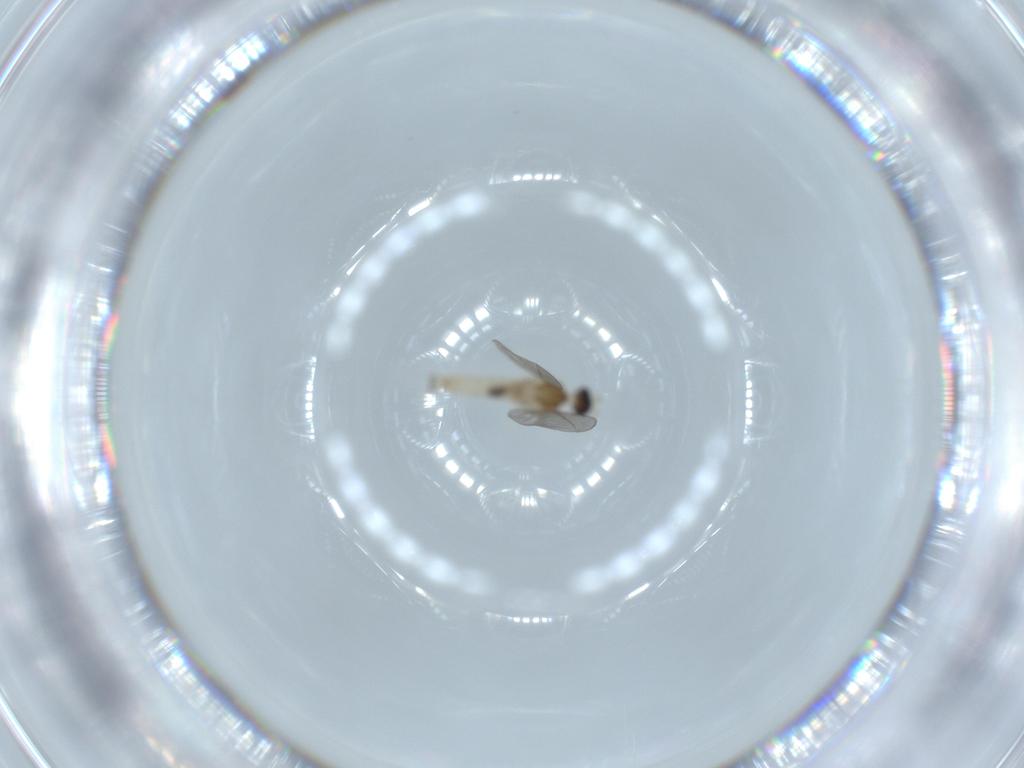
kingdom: Animalia
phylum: Arthropoda
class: Insecta
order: Diptera
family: Cecidomyiidae
